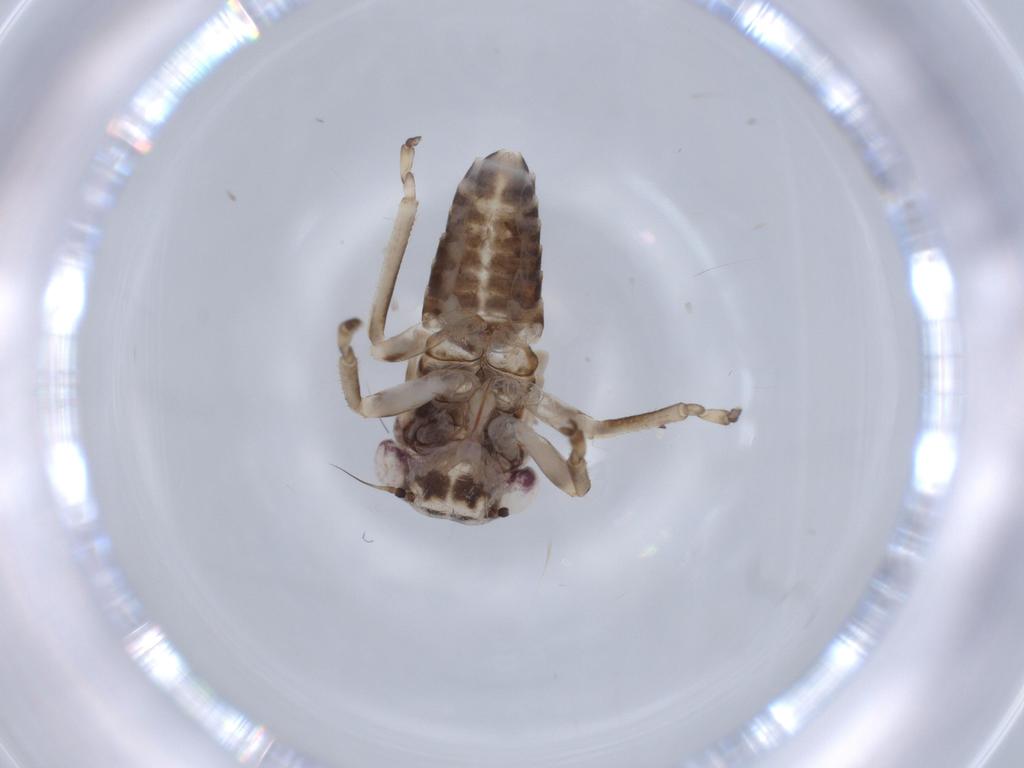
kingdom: Animalia
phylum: Arthropoda
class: Insecta
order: Hemiptera
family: Cicadellidae
